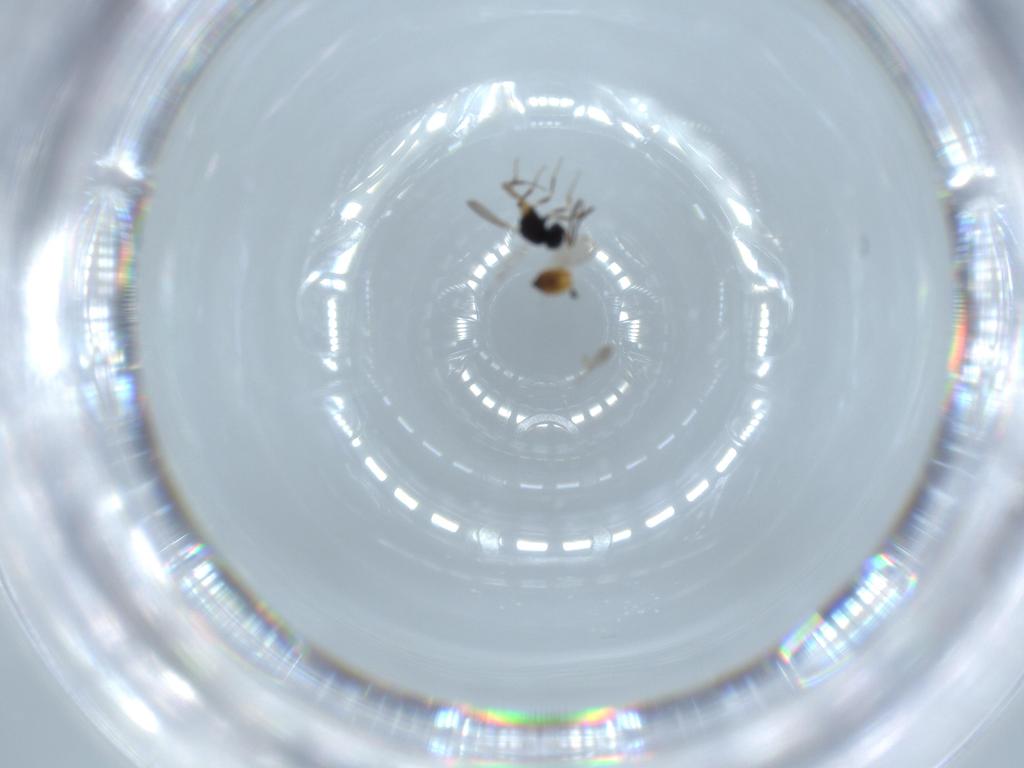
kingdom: Animalia
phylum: Arthropoda
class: Insecta
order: Hymenoptera
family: Scelionidae
